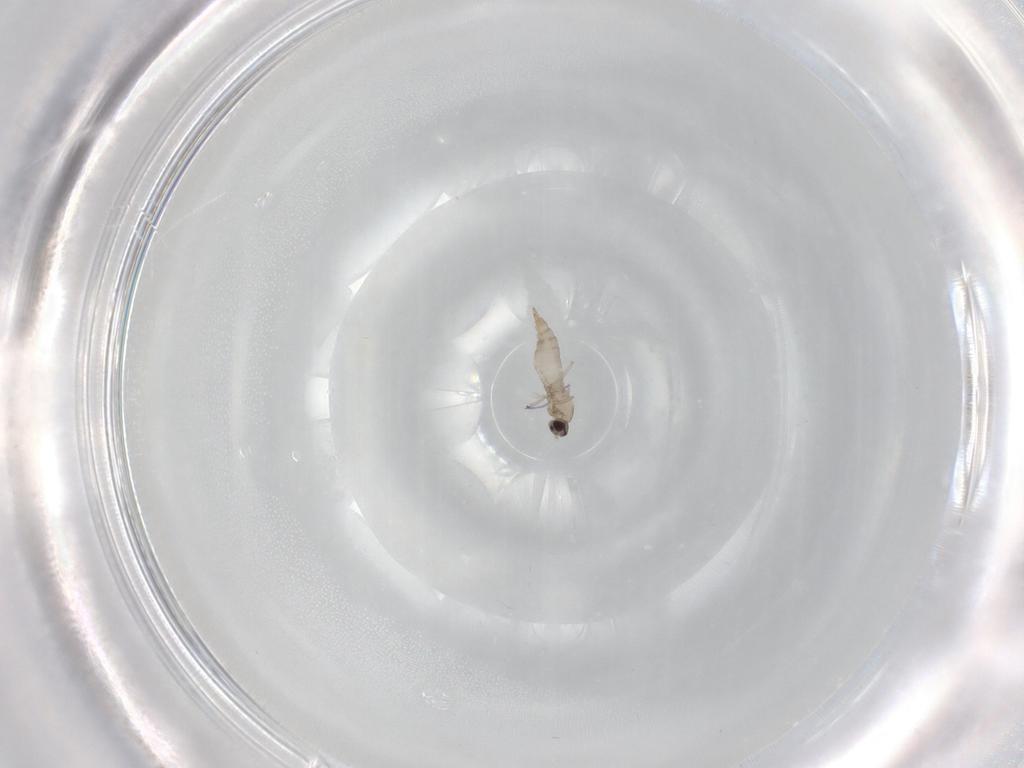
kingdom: Animalia
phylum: Arthropoda
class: Insecta
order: Diptera
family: Cecidomyiidae
